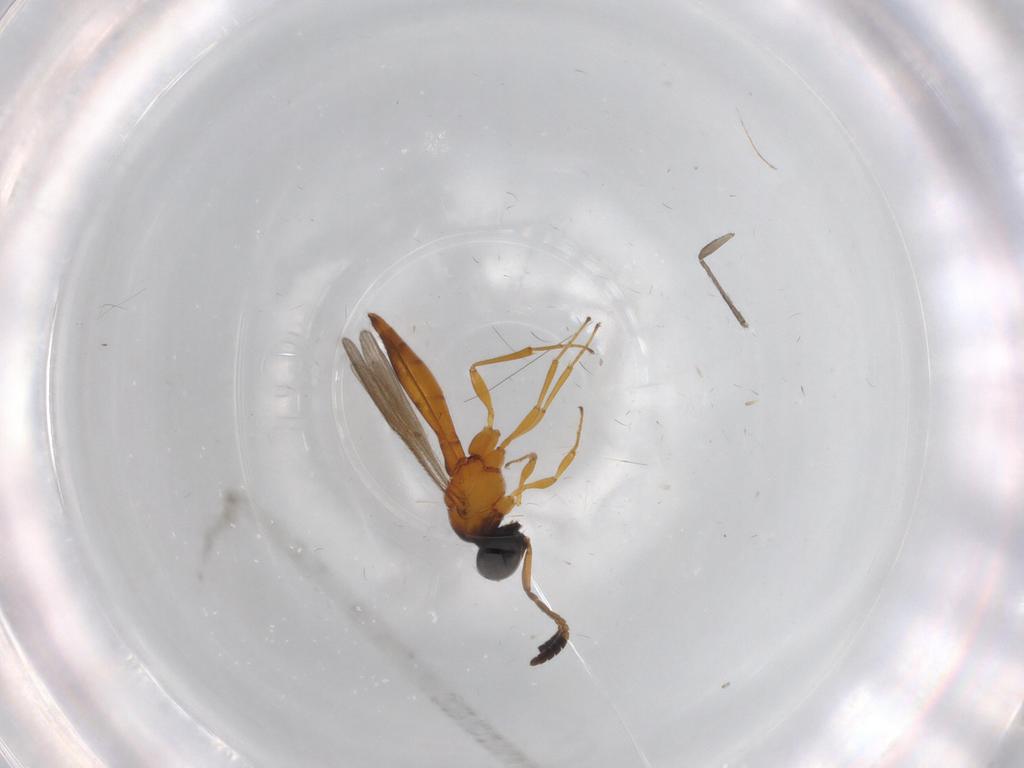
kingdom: Animalia
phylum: Arthropoda
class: Insecta
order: Hymenoptera
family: Scelionidae
